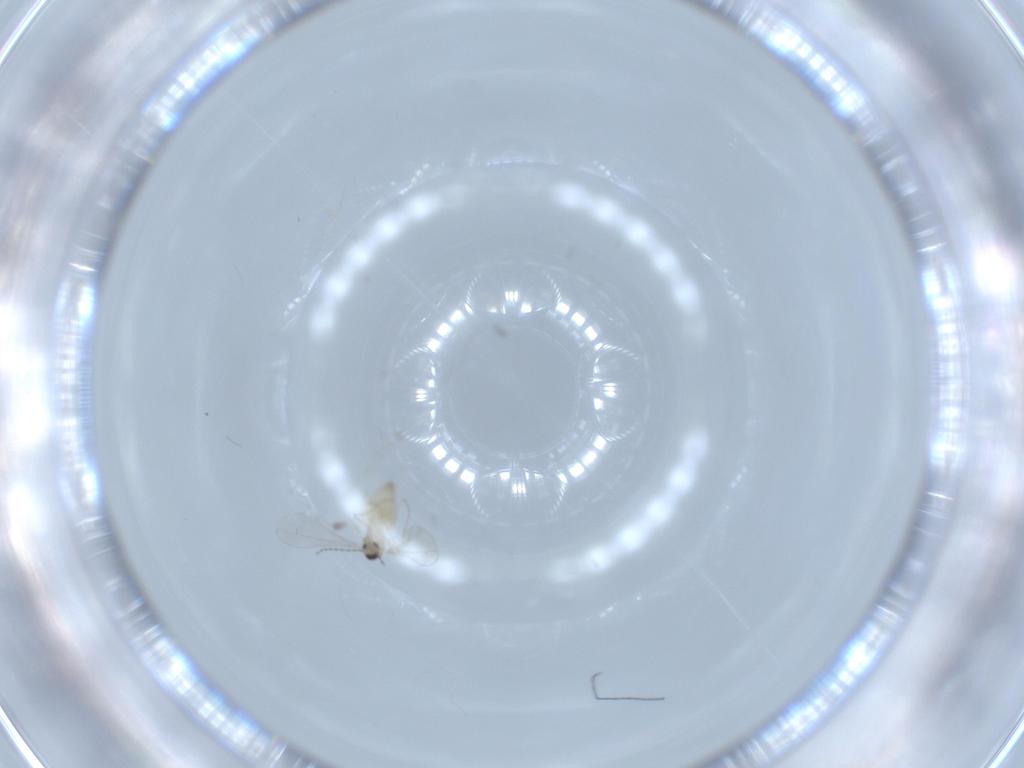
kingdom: Animalia
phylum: Arthropoda
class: Insecta
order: Diptera
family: Cecidomyiidae
